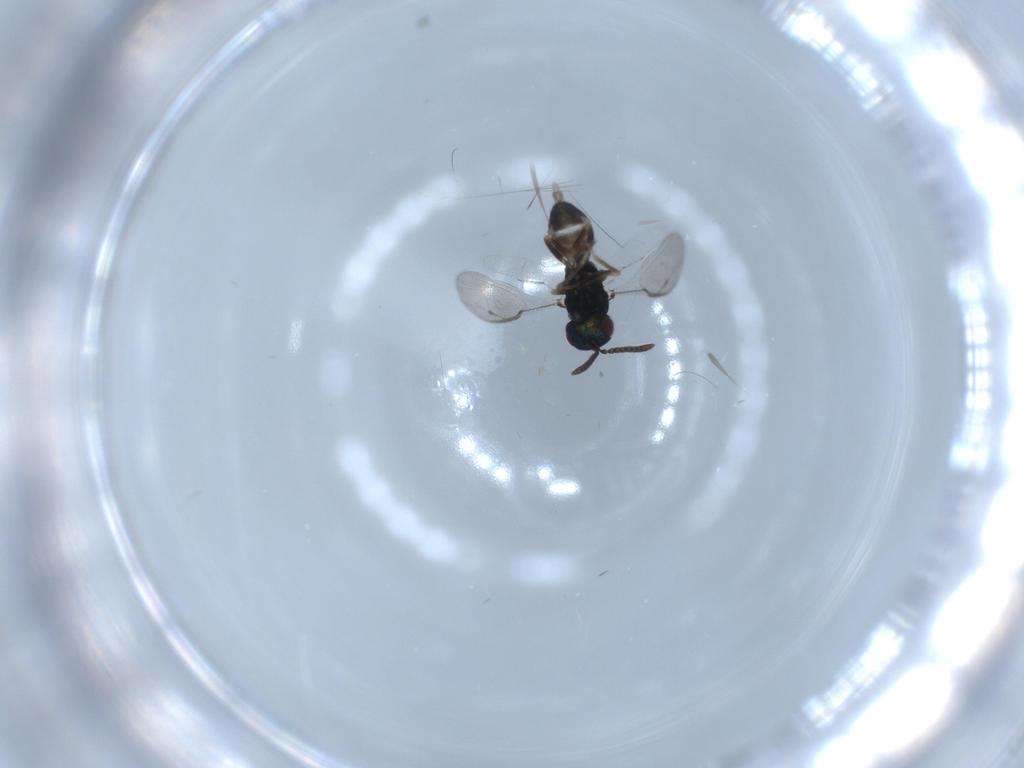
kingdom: Animalia
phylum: Arthropoda
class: Insecta
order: Hymenoptera
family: Pteromalidae
